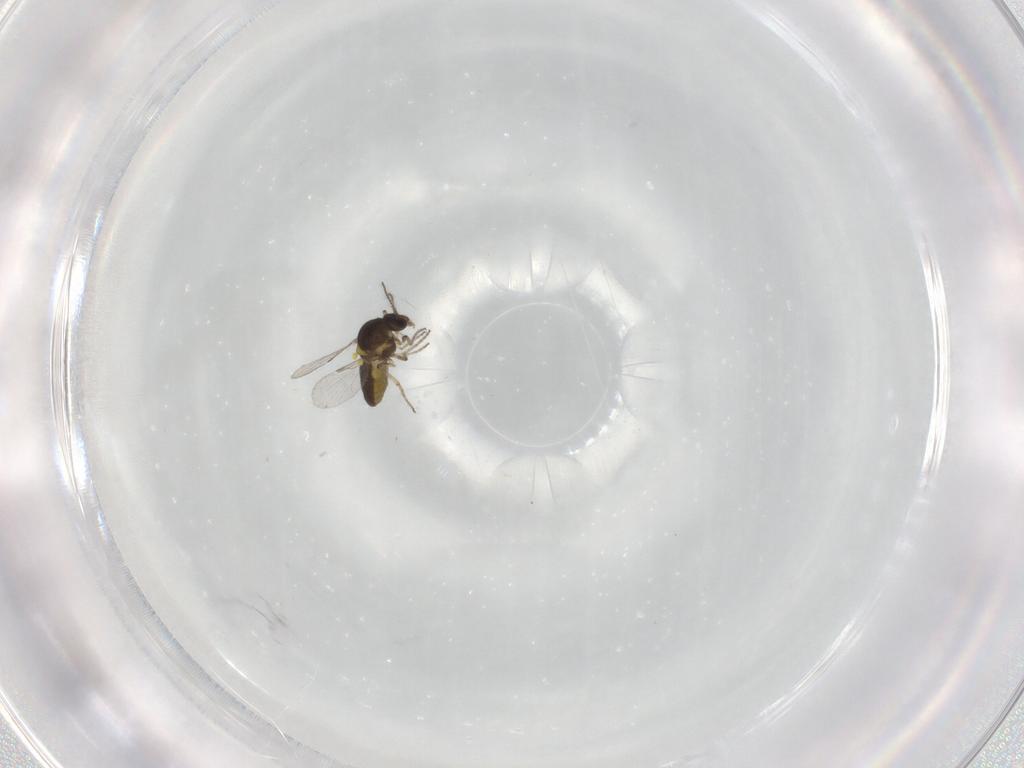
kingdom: Animalia
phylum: Arthropoda
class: Insecta
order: Diptera
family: Ceratopogonidae
